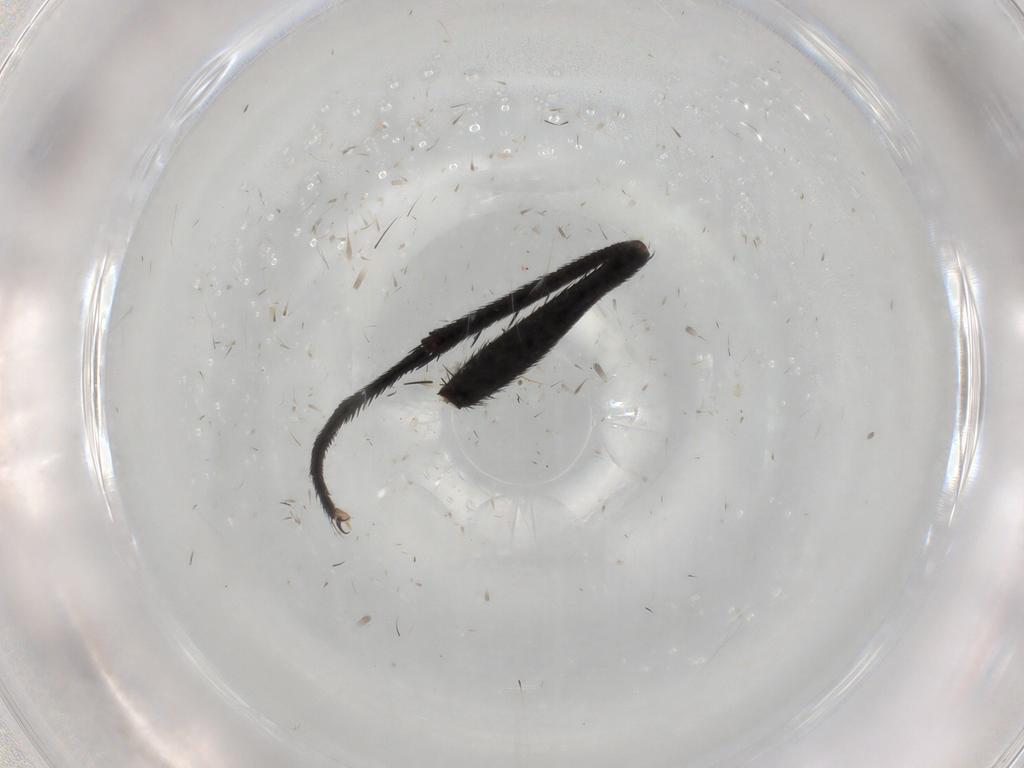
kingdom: Animalia
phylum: Arthropoda
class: Insecta
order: Diptera
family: Muscidae
